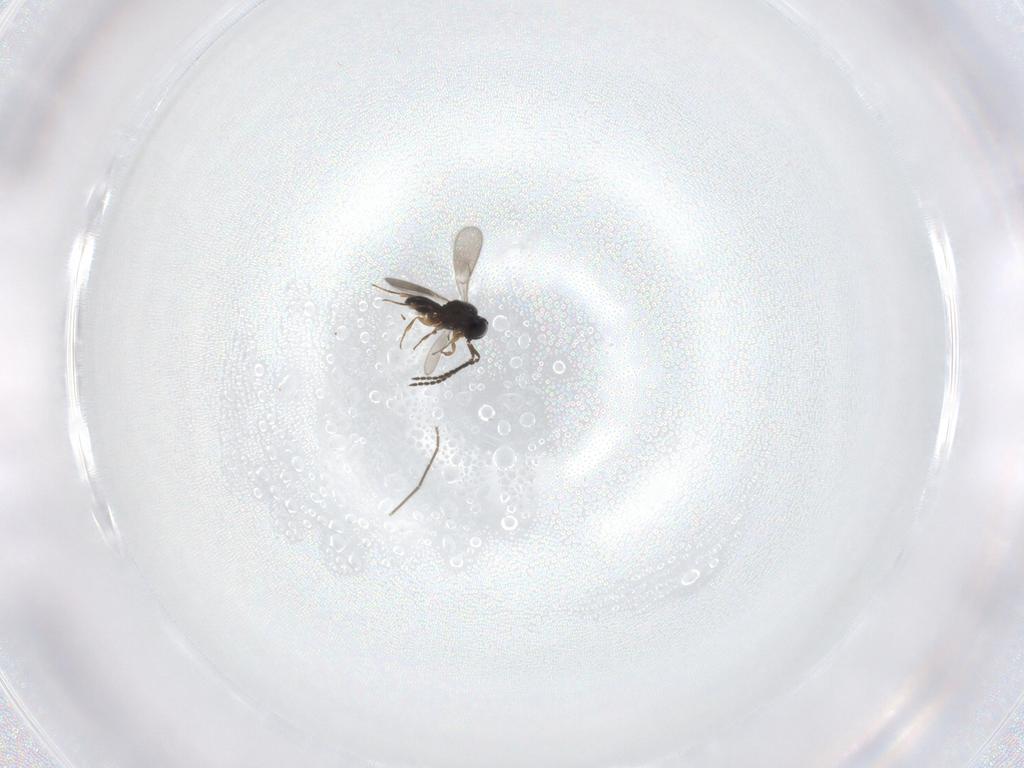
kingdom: Animalia
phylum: Arthropoda
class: Insecta
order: Hymenoptera
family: Scelionidae
